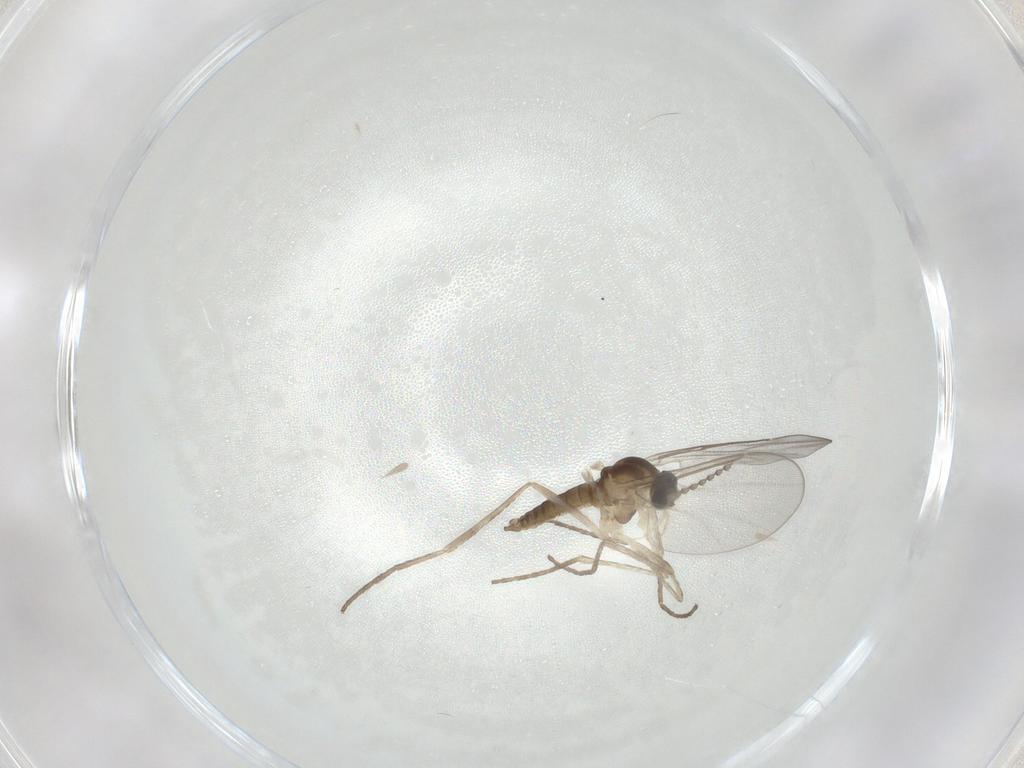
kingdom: Animalia
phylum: Arthropoda
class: Insecta
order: Diptera
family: Cecidomyiidae
